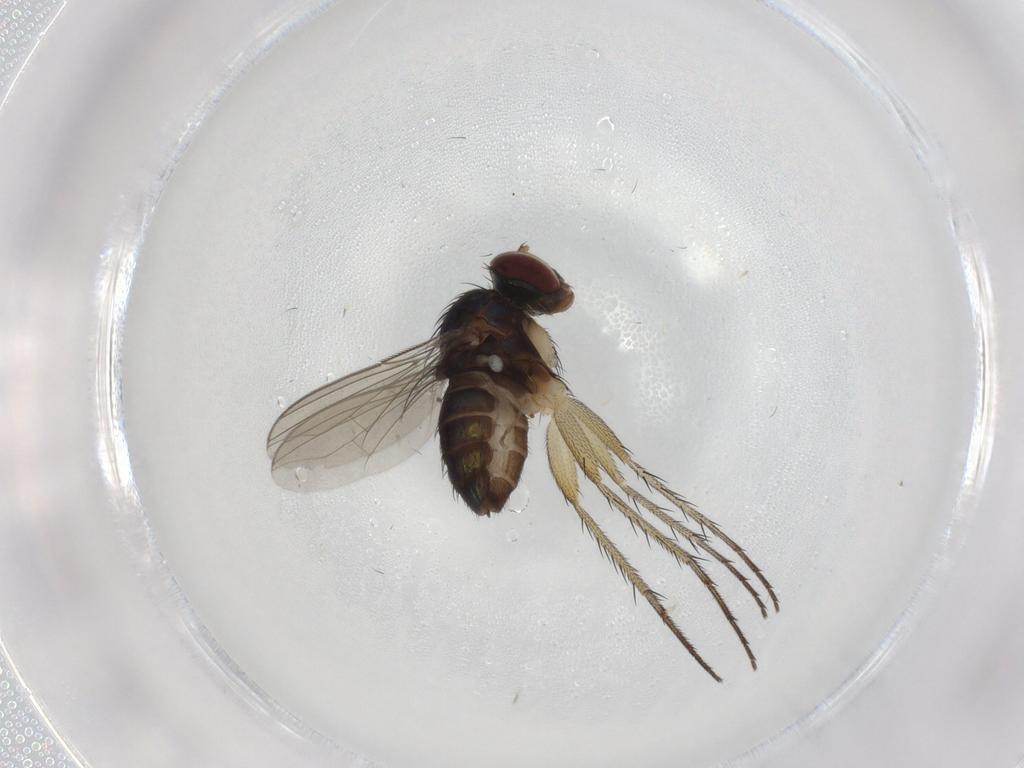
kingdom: Animalia
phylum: Arthropoda
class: Insecta
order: Diptera
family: Dolichopodidae
